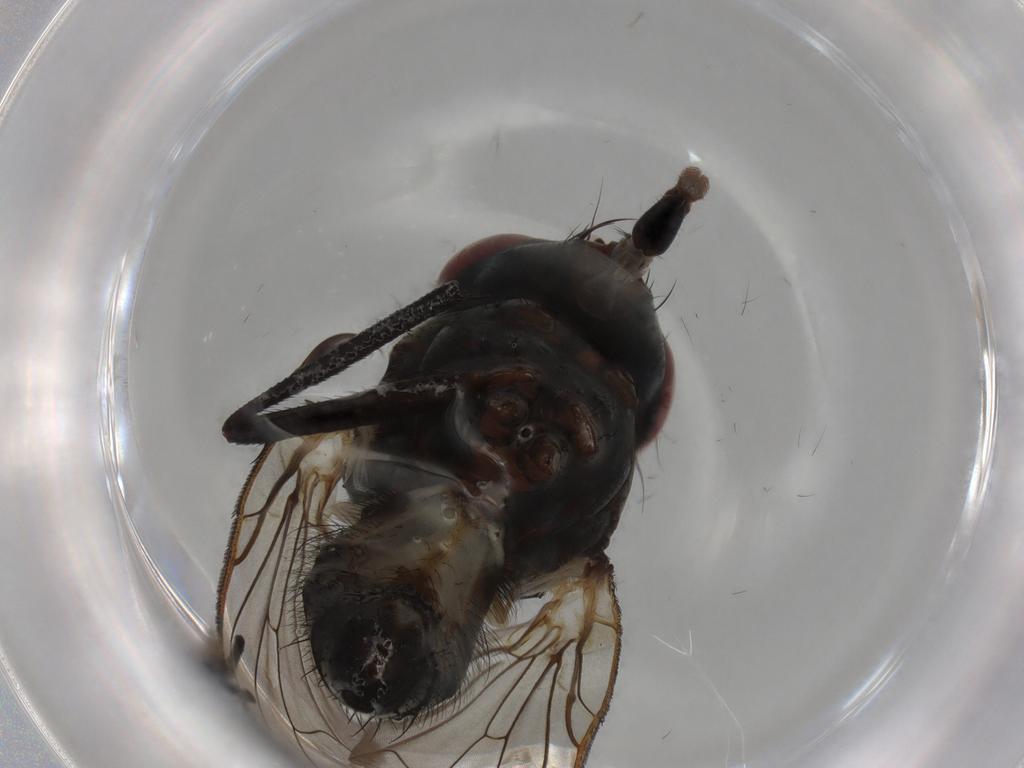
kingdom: Animalia
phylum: Arthropoda
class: Insecta
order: Diptera
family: Anthomyiidae
